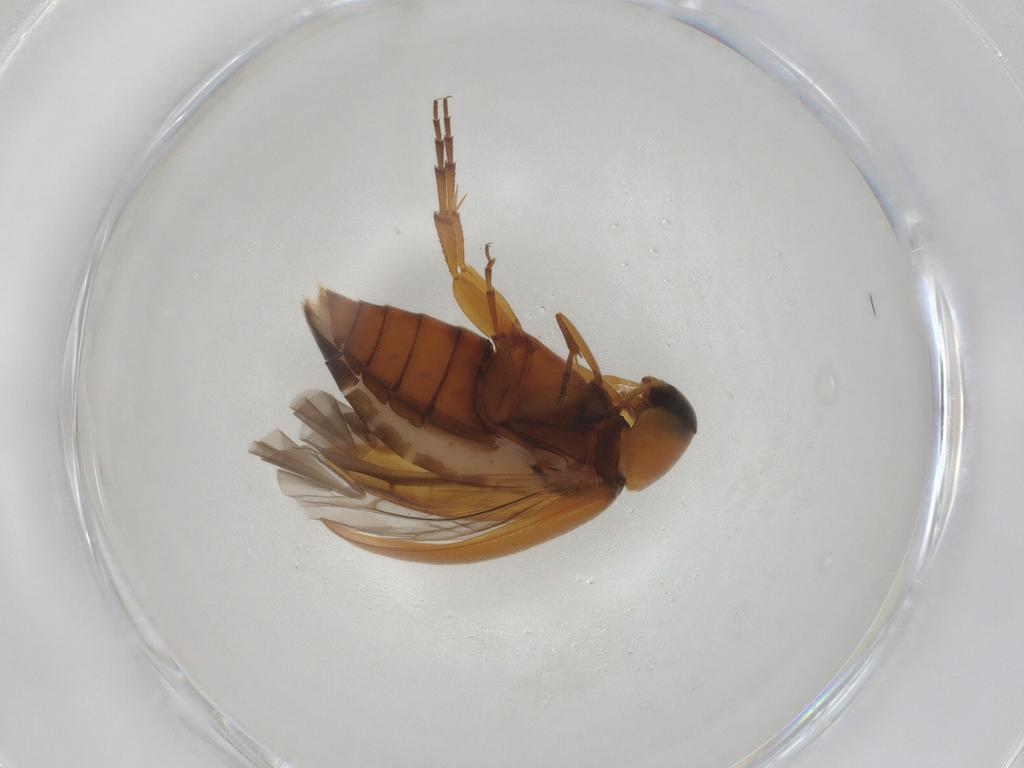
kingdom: Animalia
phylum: Arthropoda
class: Insecta
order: Coleoptera
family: Scraptiidae
